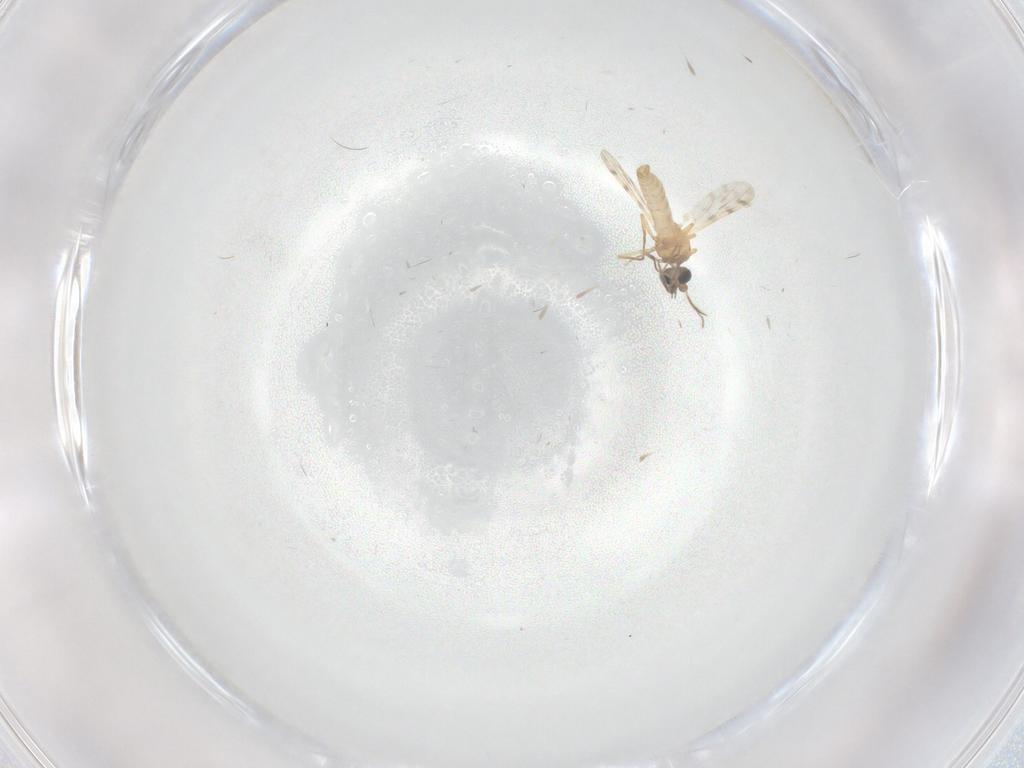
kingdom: Animalia
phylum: Arthropoda
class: Insecta
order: Diptera
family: Ceratopogonidae
